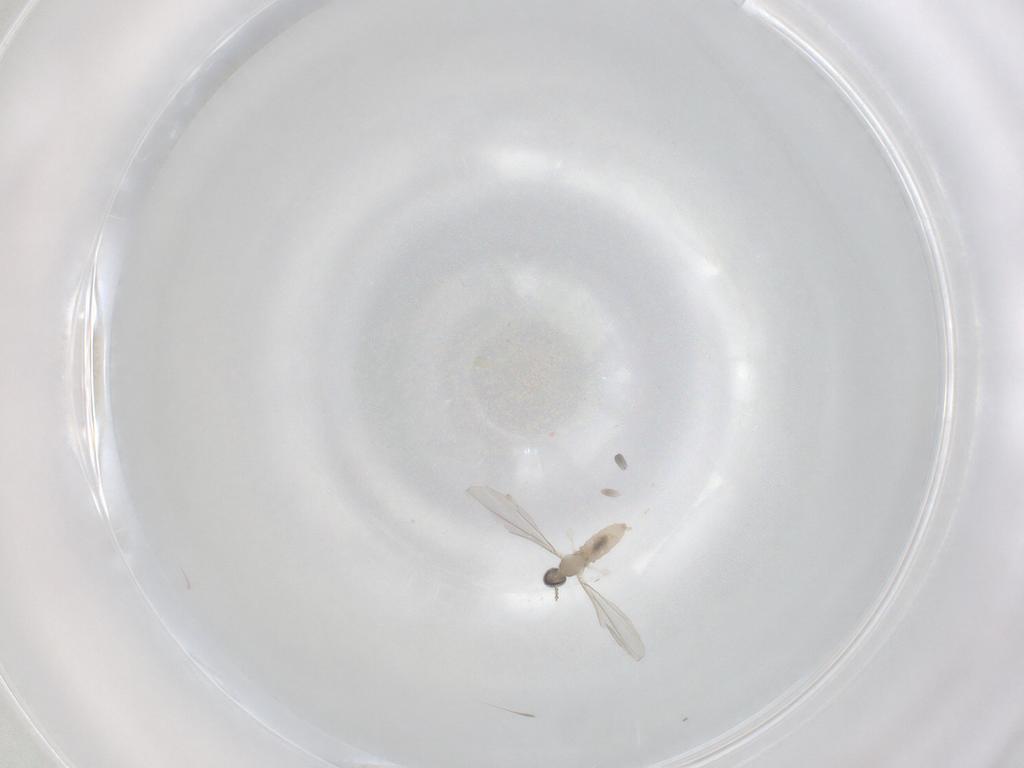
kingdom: Animalia
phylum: Arthropoda
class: Insecta
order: Diptera
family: Cecidomyiidae
